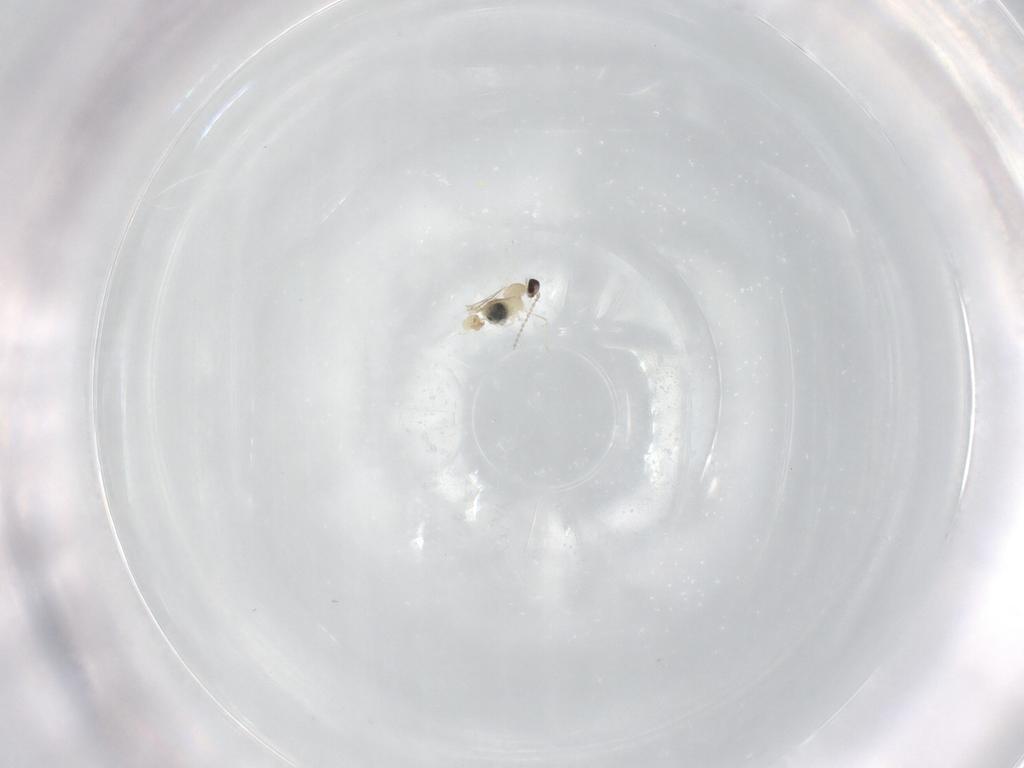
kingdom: Animalia
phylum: Arthropoda
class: Insecta
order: Diptera
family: Cecidomyiidae
